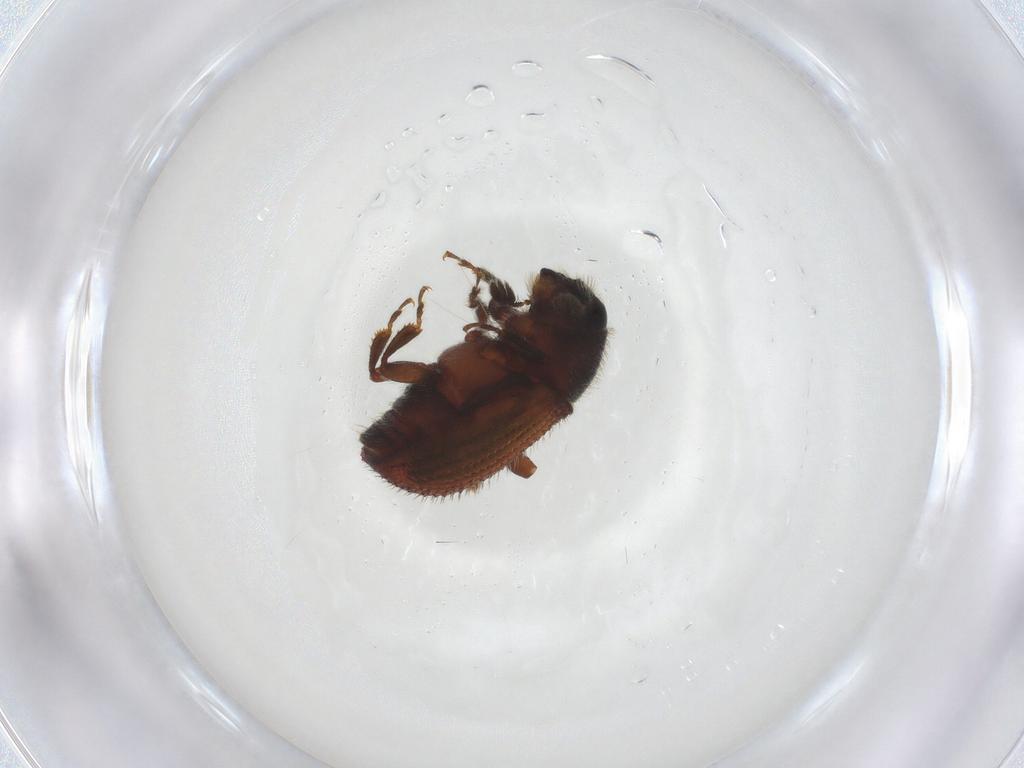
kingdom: Animalia
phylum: Arthropoda
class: Insecta
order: Coleoptera
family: Curculionidae
